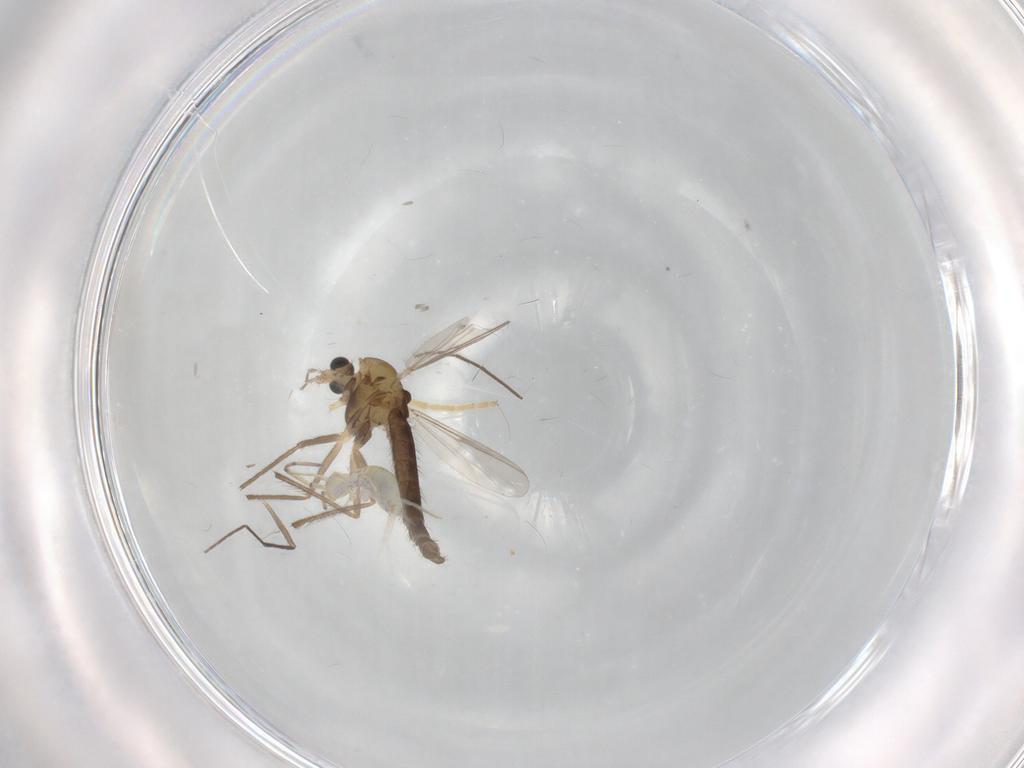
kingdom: Animalia
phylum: Arthropoda
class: Insecta
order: Diptera
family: Chironomidae
